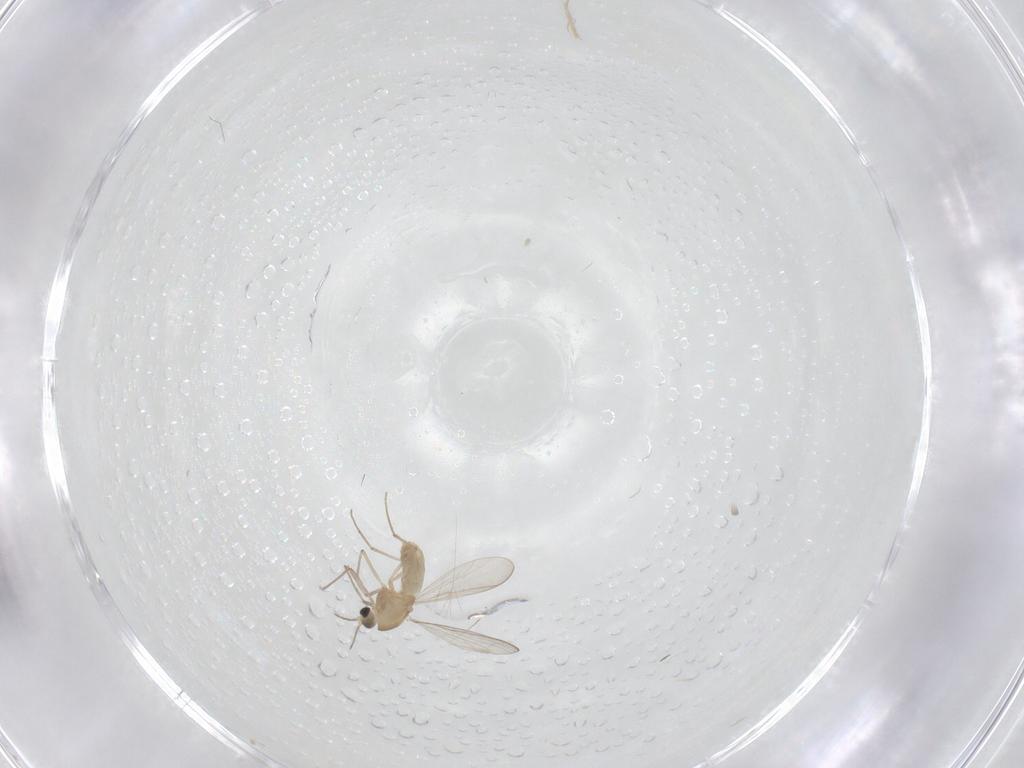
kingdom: Animalia
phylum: Arthropoda
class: Insecta
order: Diptera
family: Chironomidae
